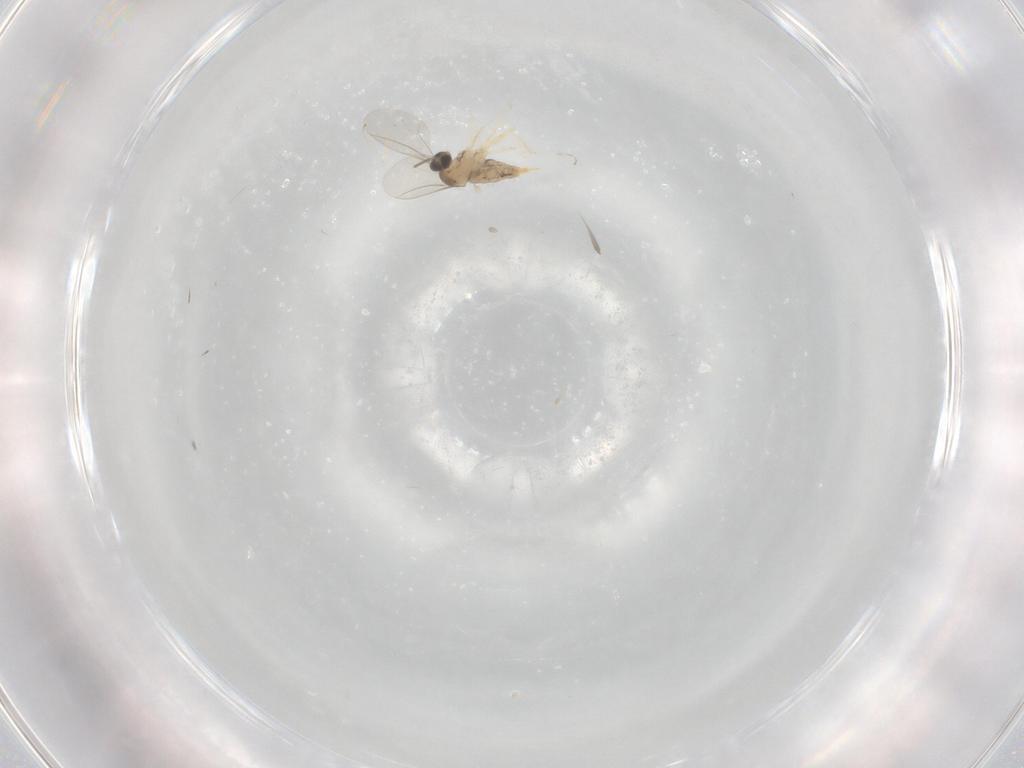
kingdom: Animalia
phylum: Arthropoda
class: Insecta
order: Diptera
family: Cecidomyiidae
